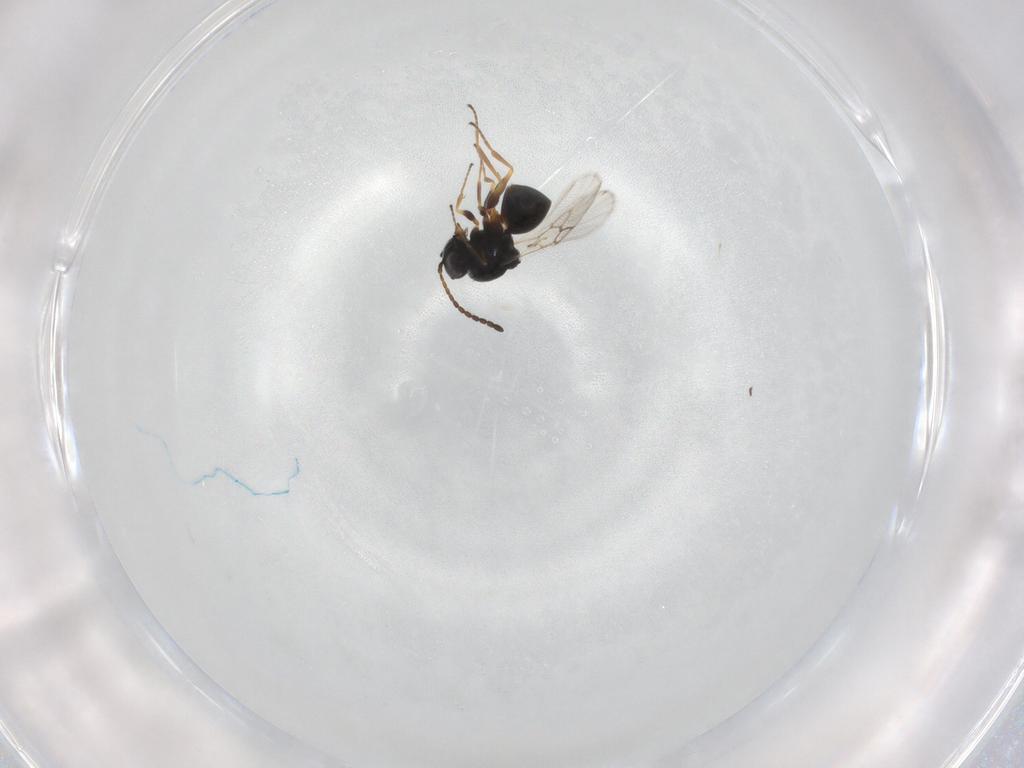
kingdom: Animalia
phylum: Arthropoda
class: Insecta
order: Hymenoptera
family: Figitidae
